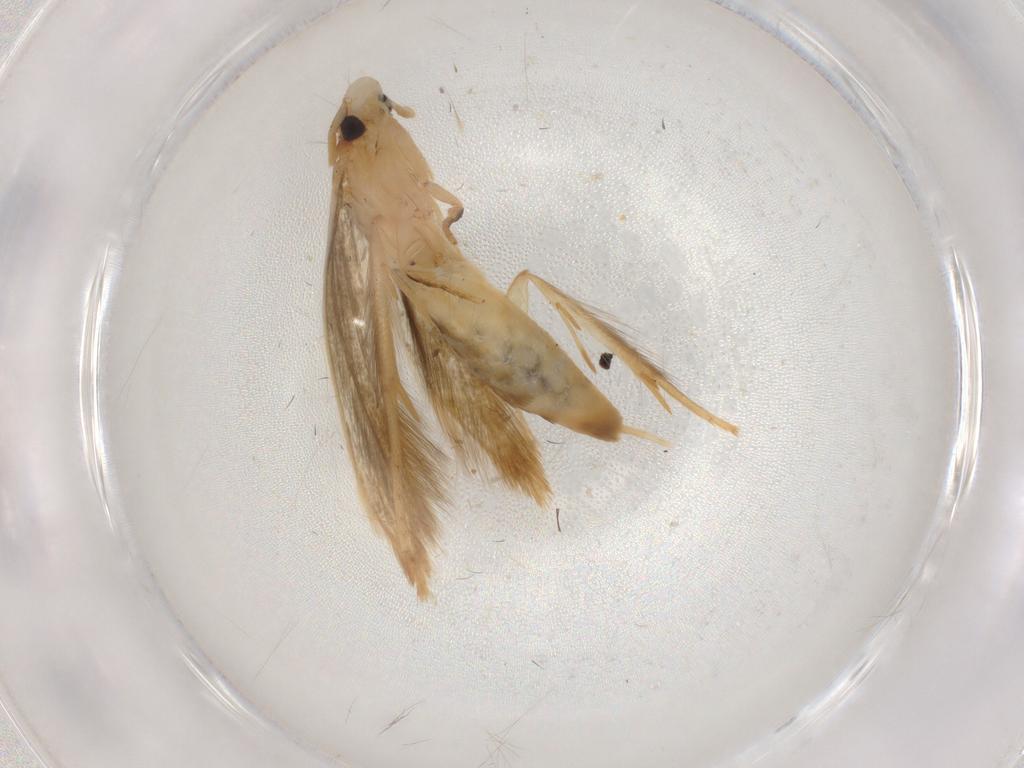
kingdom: Animalia
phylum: Arthropoda
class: Insecta
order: Lepidoptera
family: Tineidae
